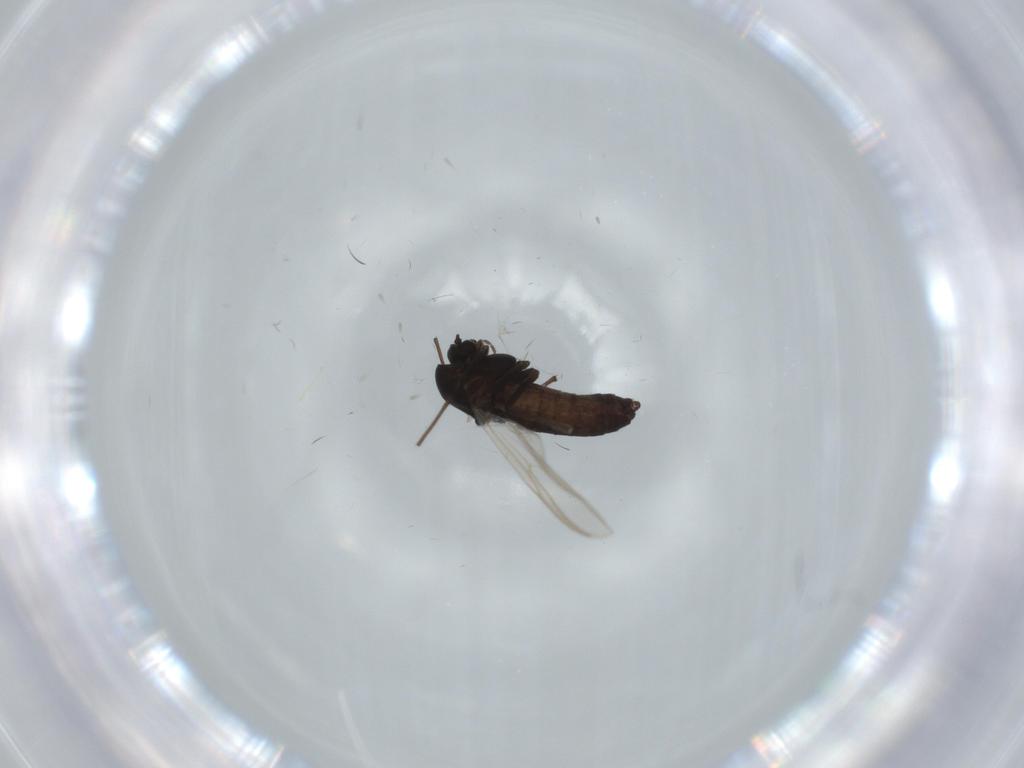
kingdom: Animalia
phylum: Arthropoda
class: Insecta
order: Diptera
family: Chironomidae
